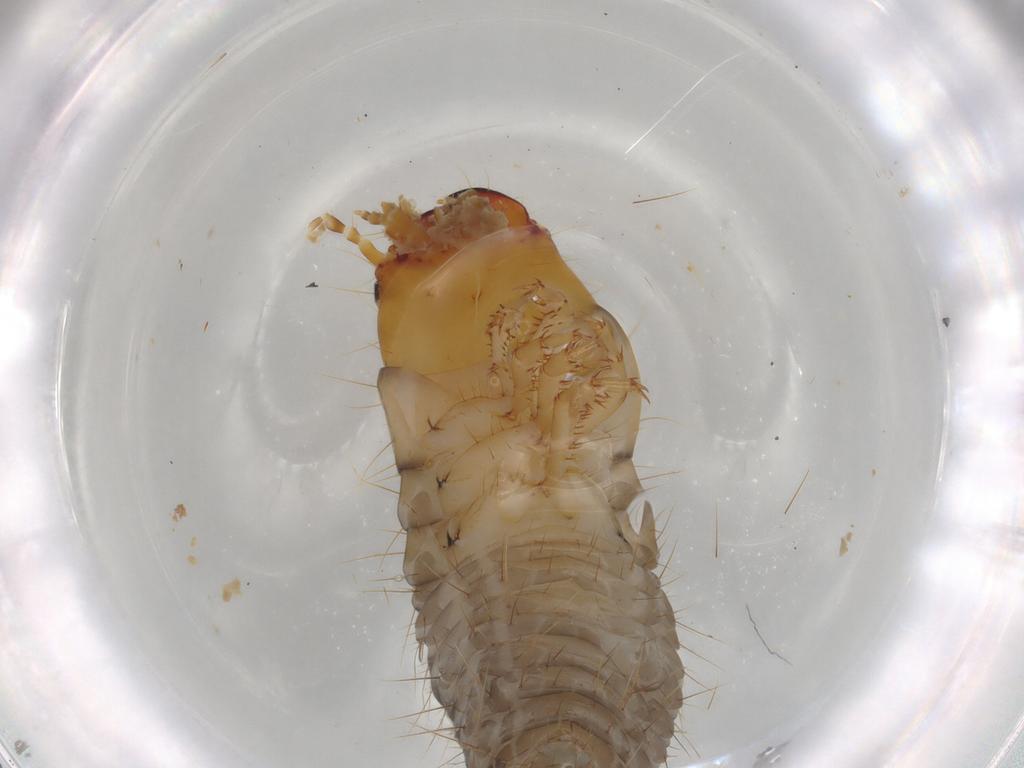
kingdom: Animalia
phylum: Arthropoda
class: Insecta
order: Coleoptera
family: Carabidae
